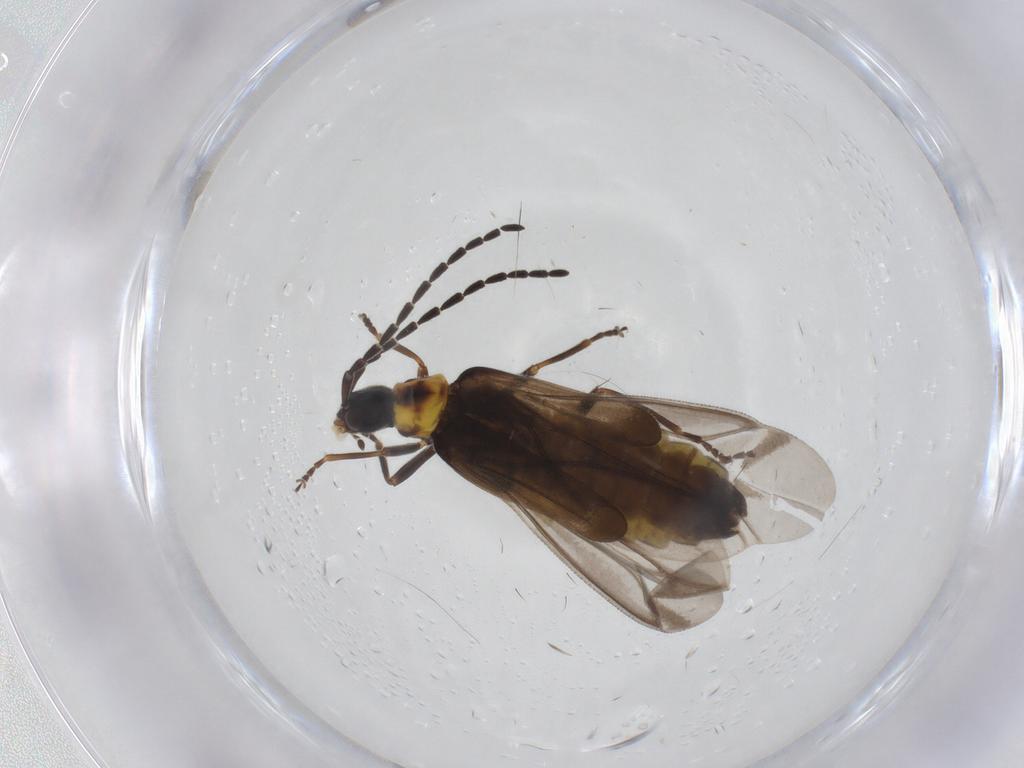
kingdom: Animalia
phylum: Arthropoda
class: Insecta
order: Coleoptera
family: Cantharidae
